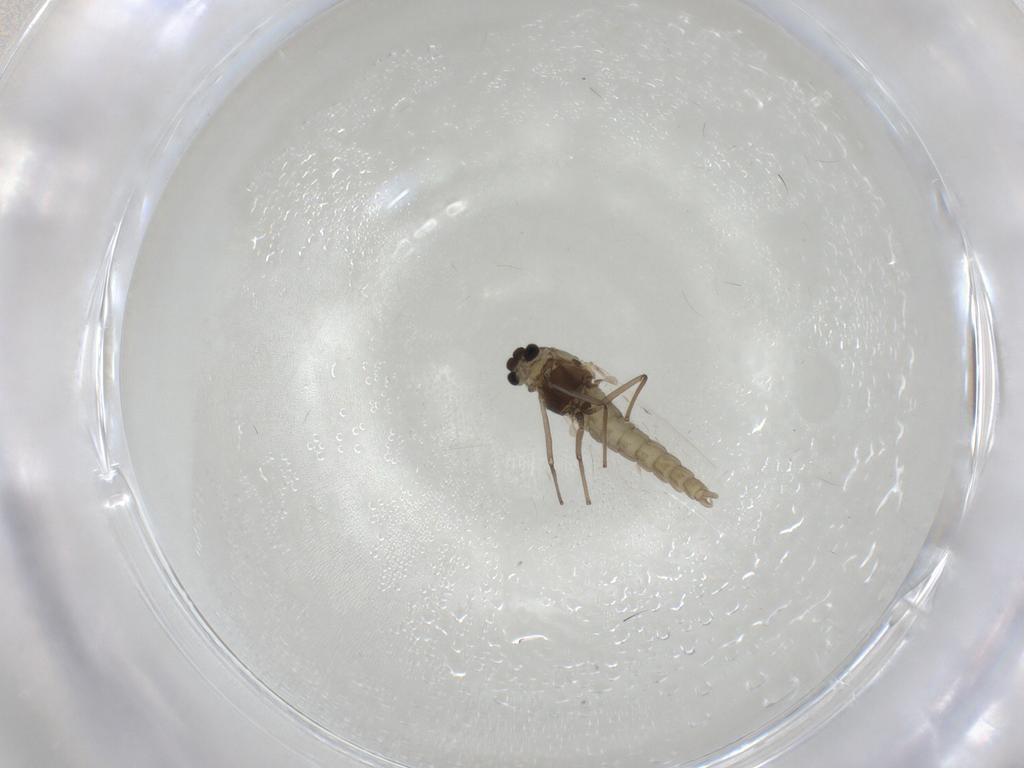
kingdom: Animalia
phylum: Arthropoda
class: Insecta
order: Diptera
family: Chironomidae
